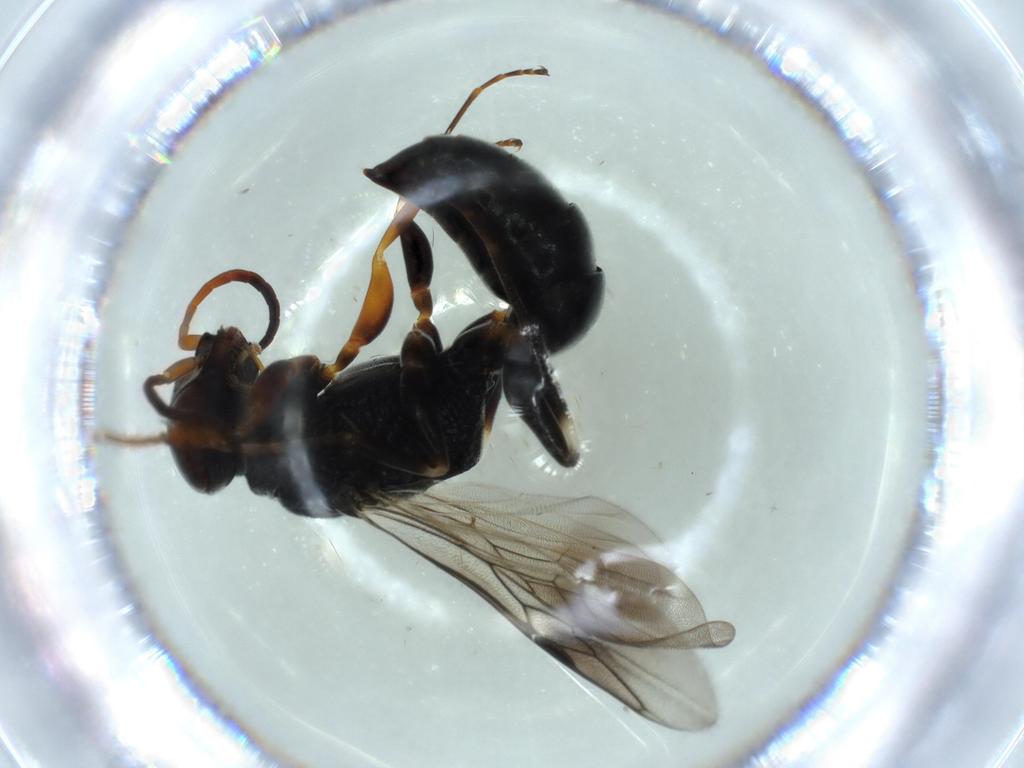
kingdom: Animalia
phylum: Arthropoda
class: Insecta
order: Hymenoptera
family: Crabronidae
